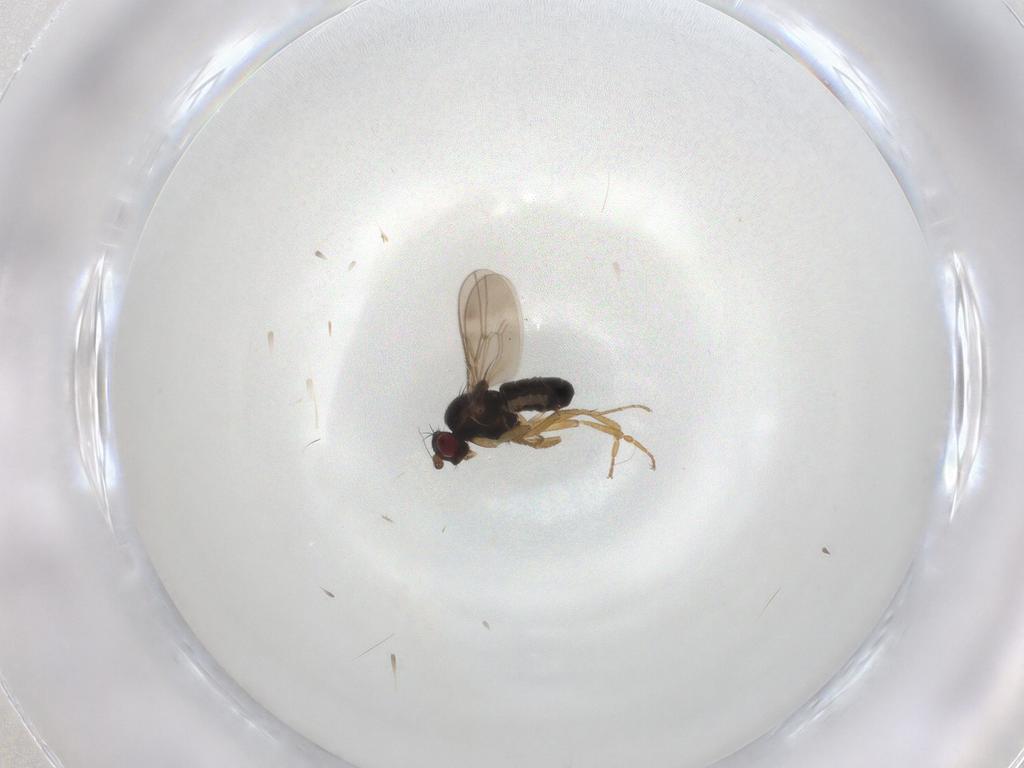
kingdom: Animalia
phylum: Arthropoda
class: Insecta
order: Diptera
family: Sphaeroceridae
